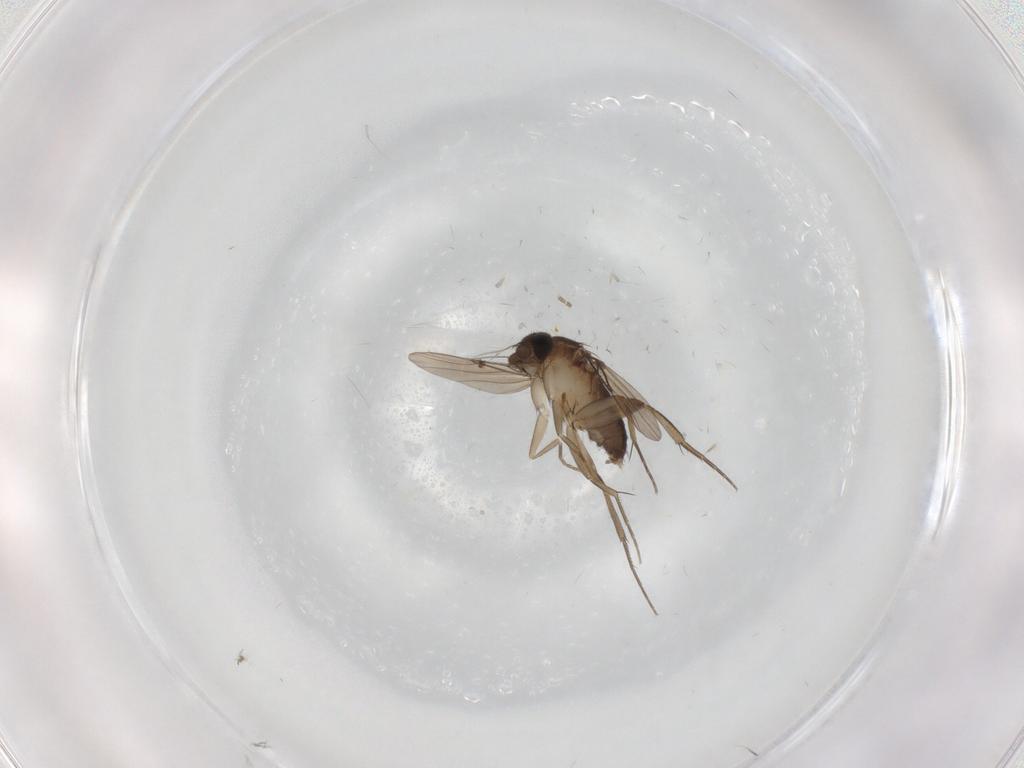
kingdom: Animalia
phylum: Arthropoda
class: Insecta
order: Diptera
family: Phoridae
